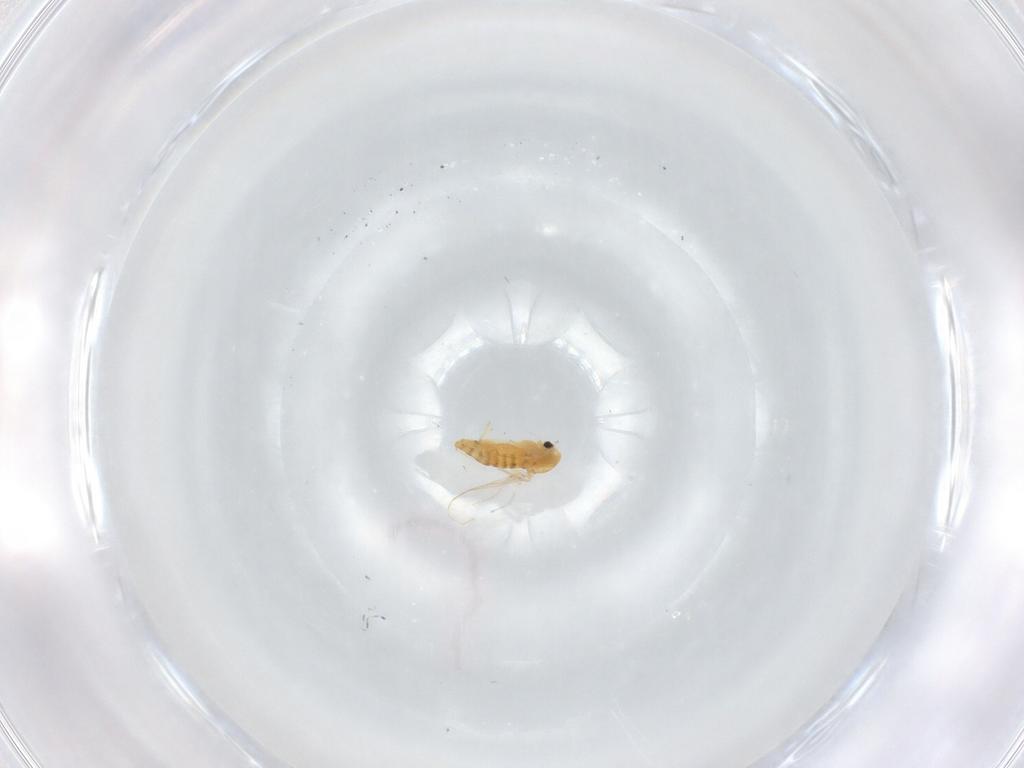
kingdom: Animalia
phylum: Arthropoda
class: Insecta
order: Diptera
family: Chironomidae
